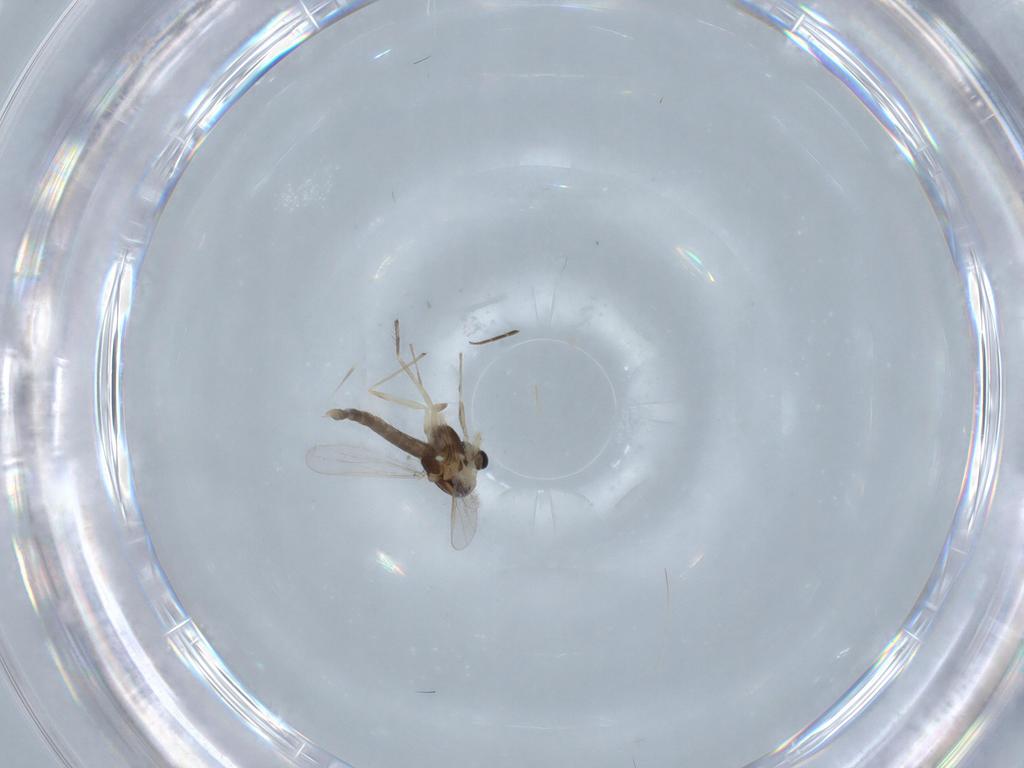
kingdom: Animalia
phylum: Arthropoda
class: Insecta
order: Diptera
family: Chironomidae
